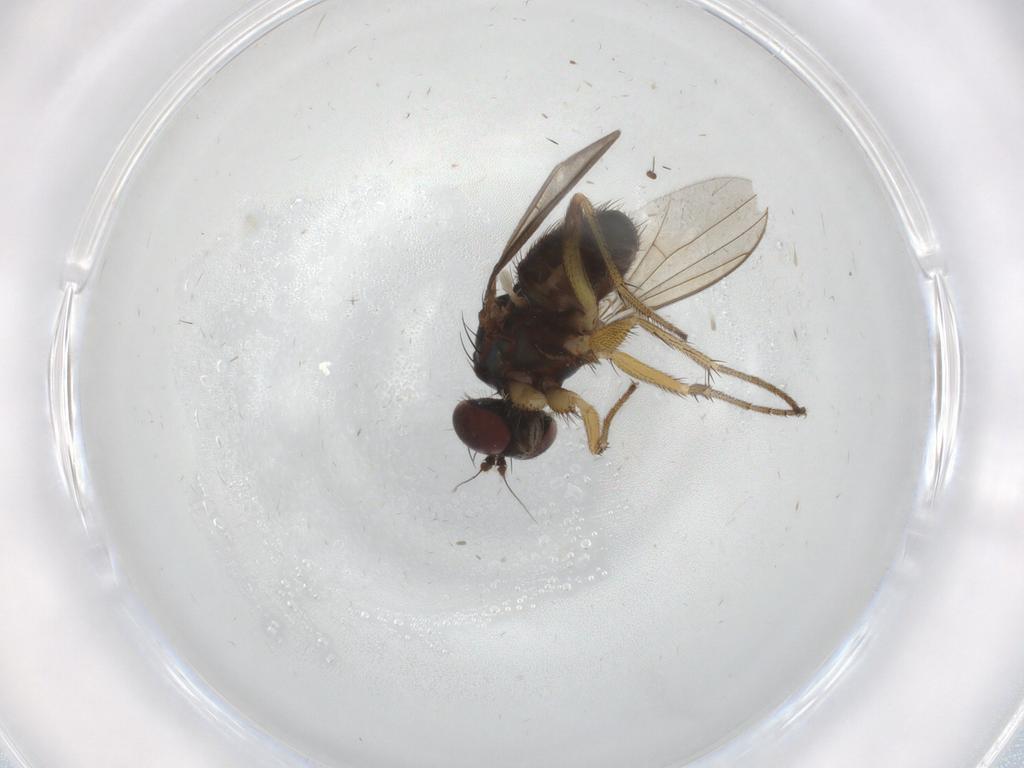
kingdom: Animalia
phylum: Arthropoda
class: Insecta
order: Diptera
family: Dolichopodidae
